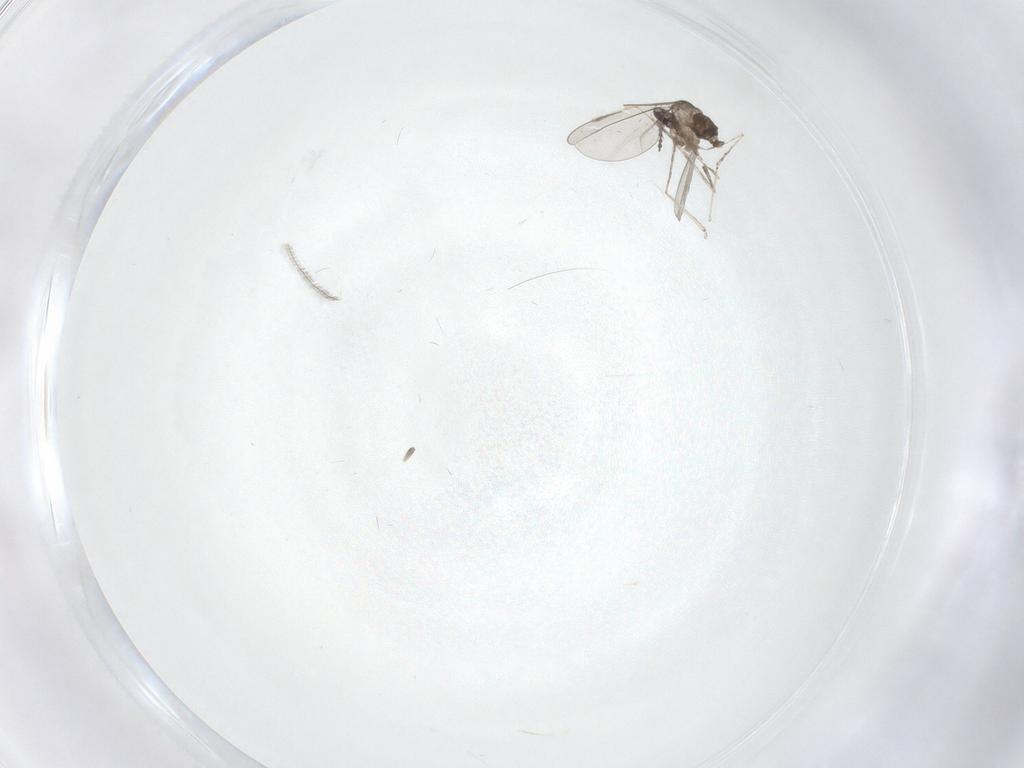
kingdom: Animalia
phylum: Arthropoda
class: Insecta
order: Diptera
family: Cecidomyiidae
